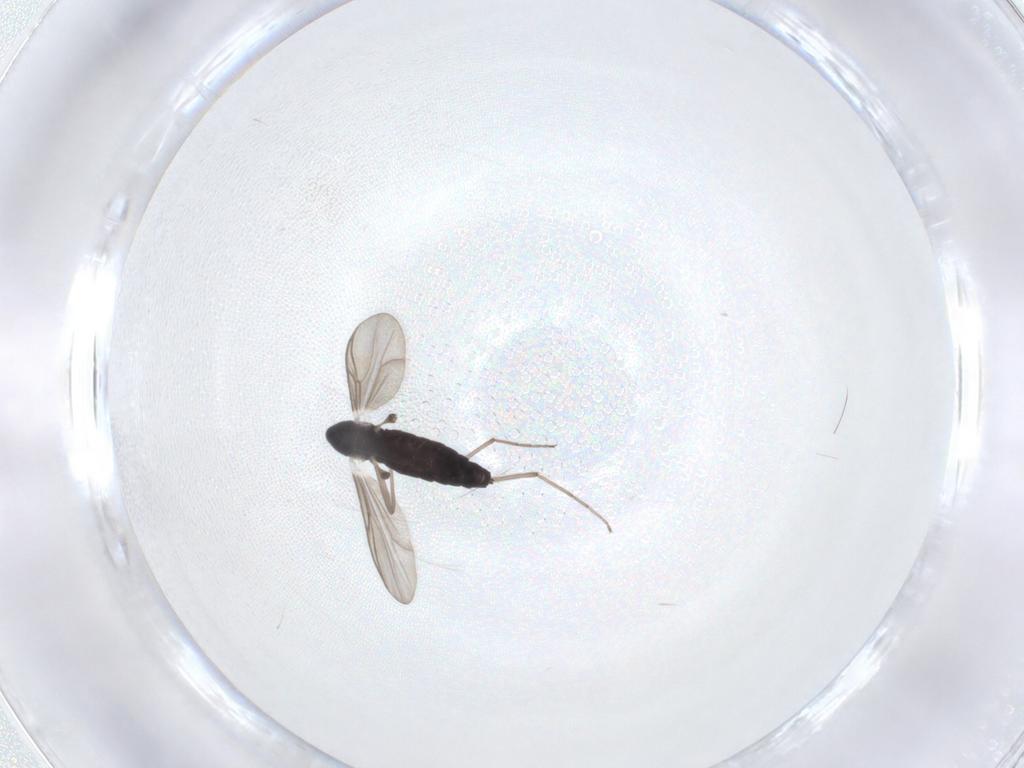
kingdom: Animalia
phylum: Arthropoda
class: Insecta
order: Diptera
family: Chironomidae
